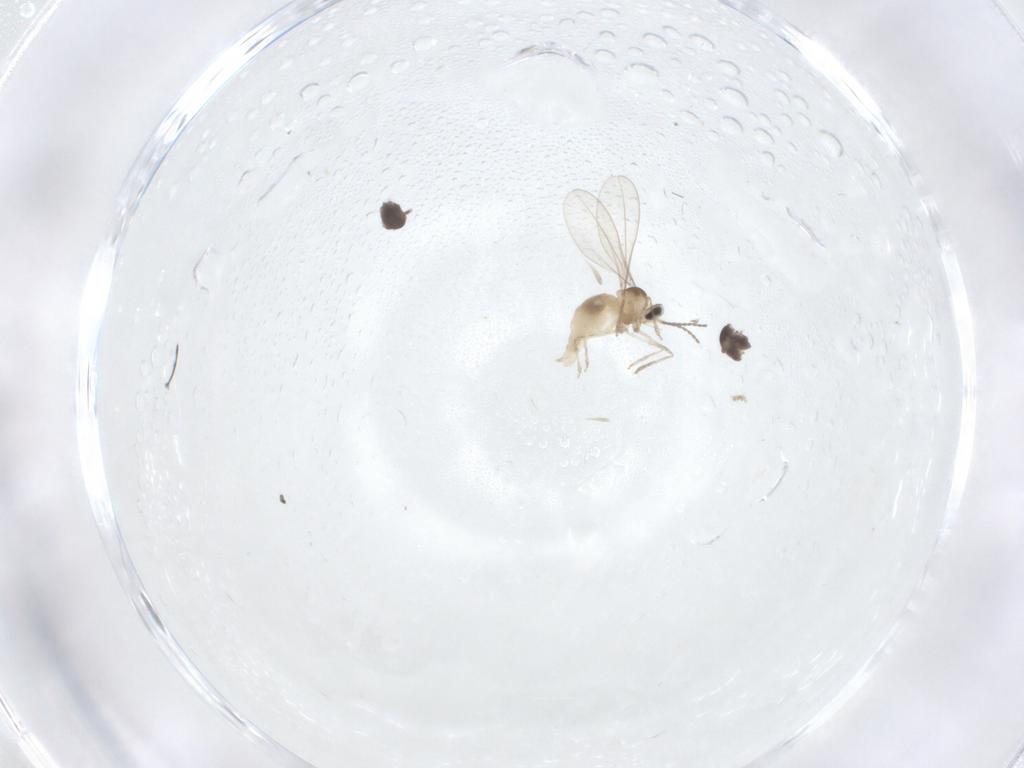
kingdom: Animalia
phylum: Arthropoda
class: Insecta
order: Diptera
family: Cecidomyiidae
